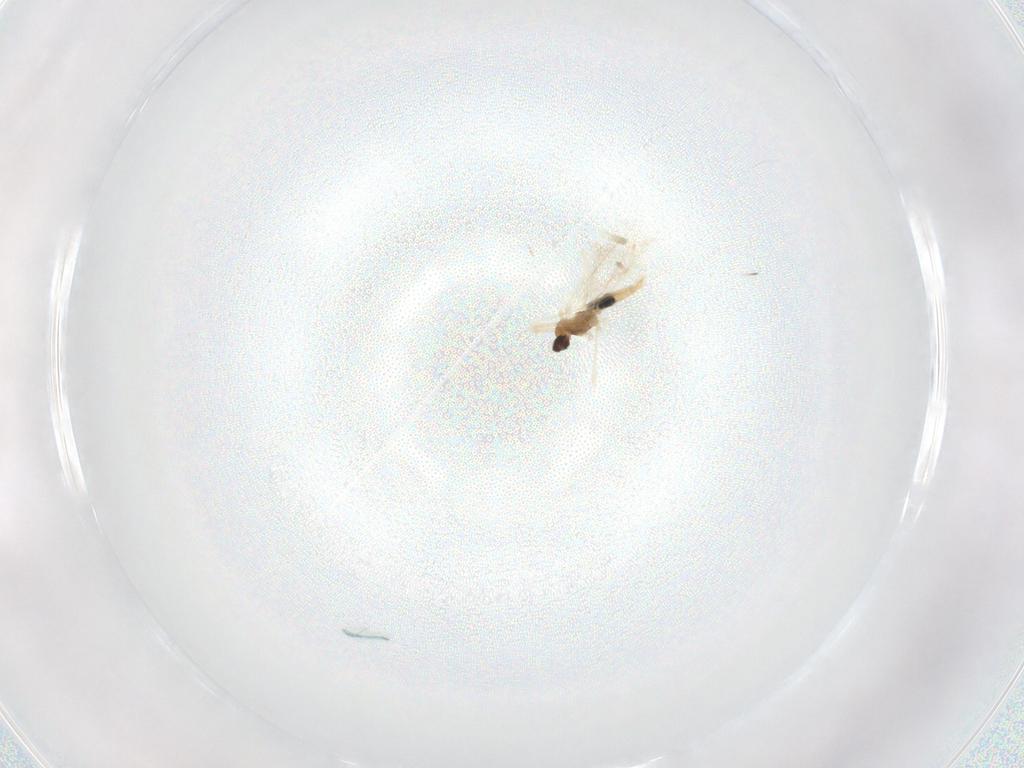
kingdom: Animalia
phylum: Arthropoda
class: Insecta
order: Diptera
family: Cecidomyiidae
